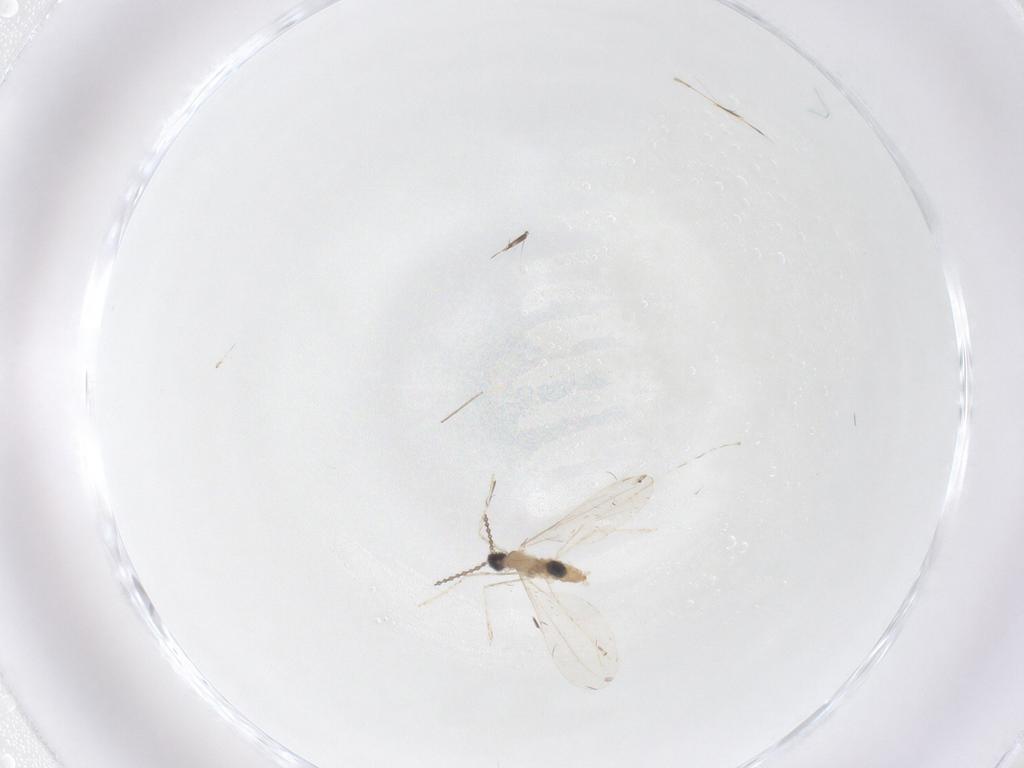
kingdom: Animalia
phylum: Arthropoda
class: Insecta
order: Diptera
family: Cecidomyiidae
